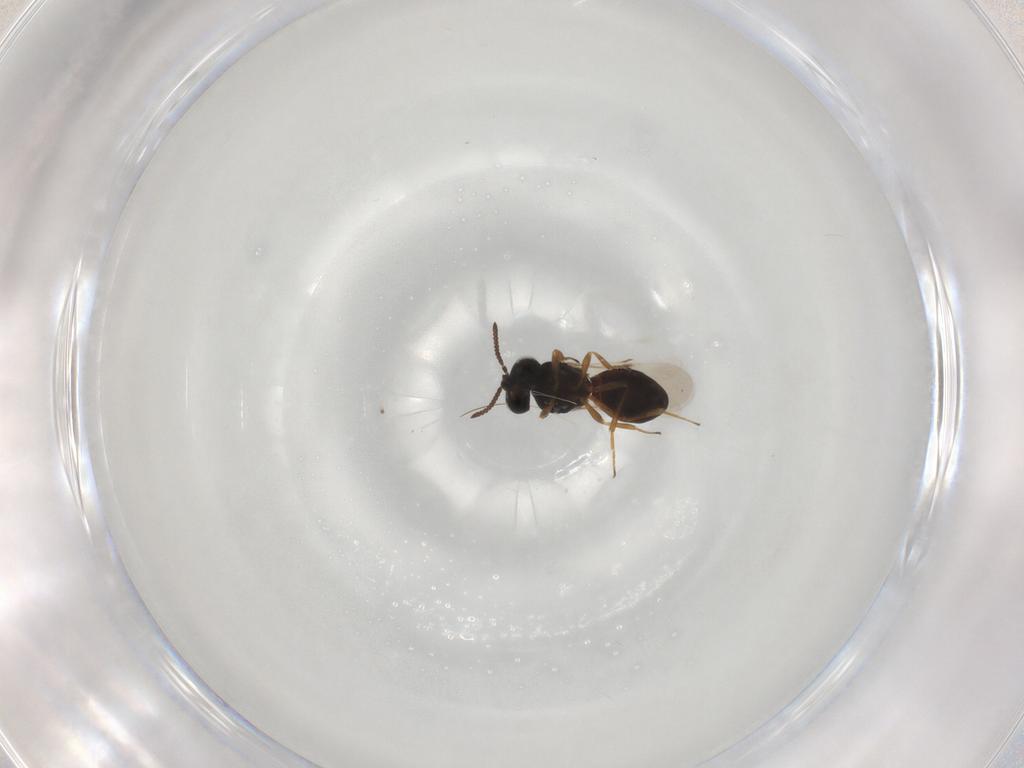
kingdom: Animalia
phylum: Arthropoda
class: Insecta
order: Hymenoptera
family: Scelionidae
